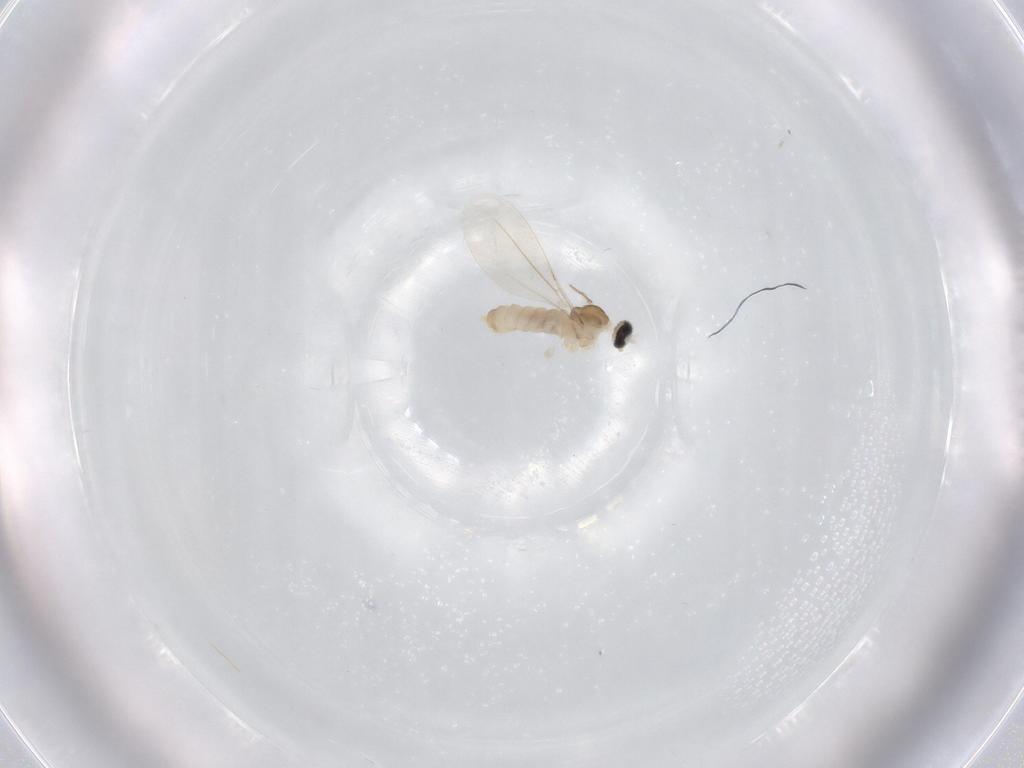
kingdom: Animalia
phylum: Arthropoda
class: Insecta
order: Diptera
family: Cecidomyiidae
